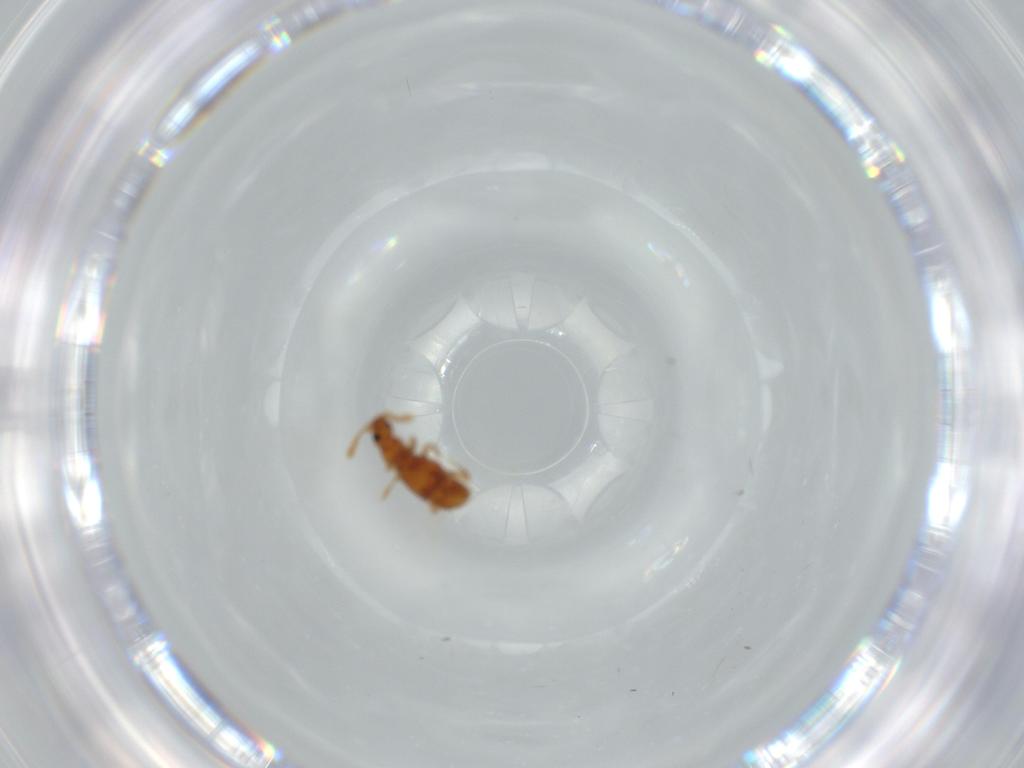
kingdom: Animalia
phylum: Arthropoda
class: Insecta
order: Coleoptera
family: Staphylinidae
